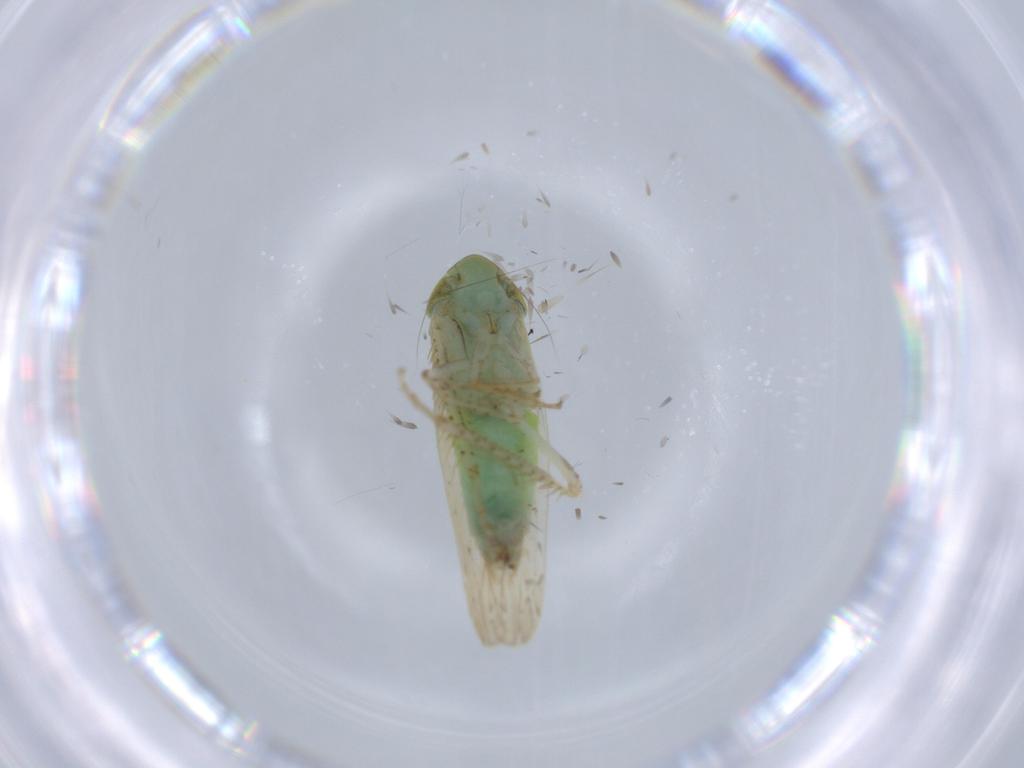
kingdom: Animalia
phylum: Arthropoda
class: Insecta
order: Hemiptera
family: Cicadellidae
